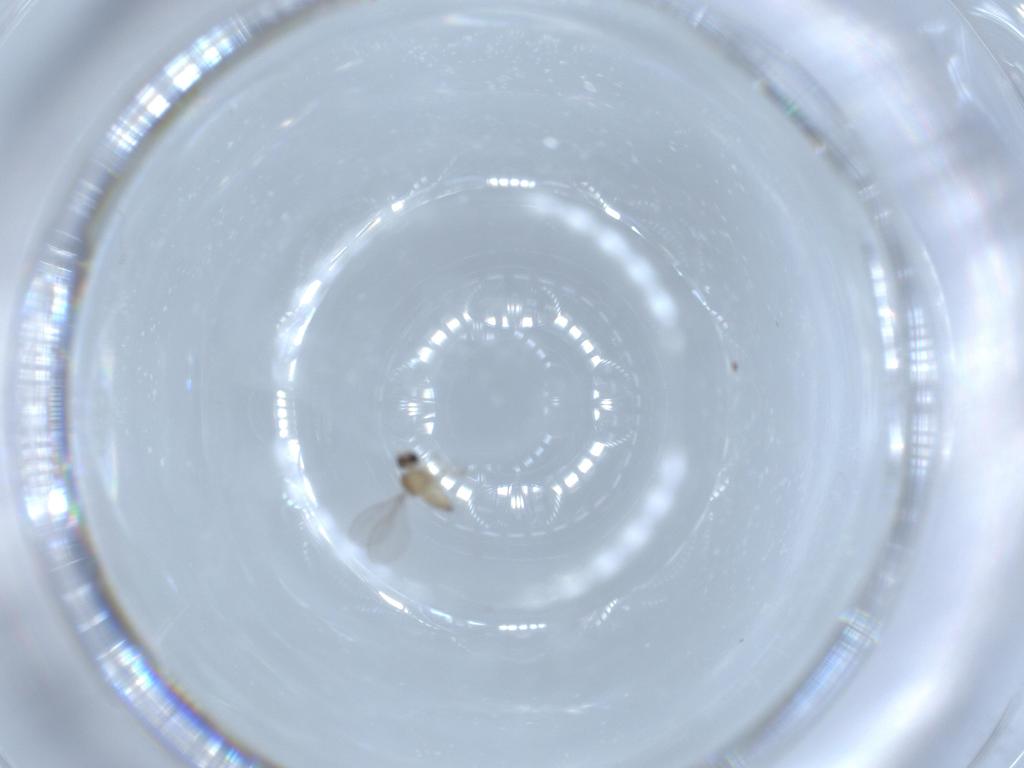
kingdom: Animalia
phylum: Arthropoda
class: Insecta
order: Diptera
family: Cecidomyiidae
